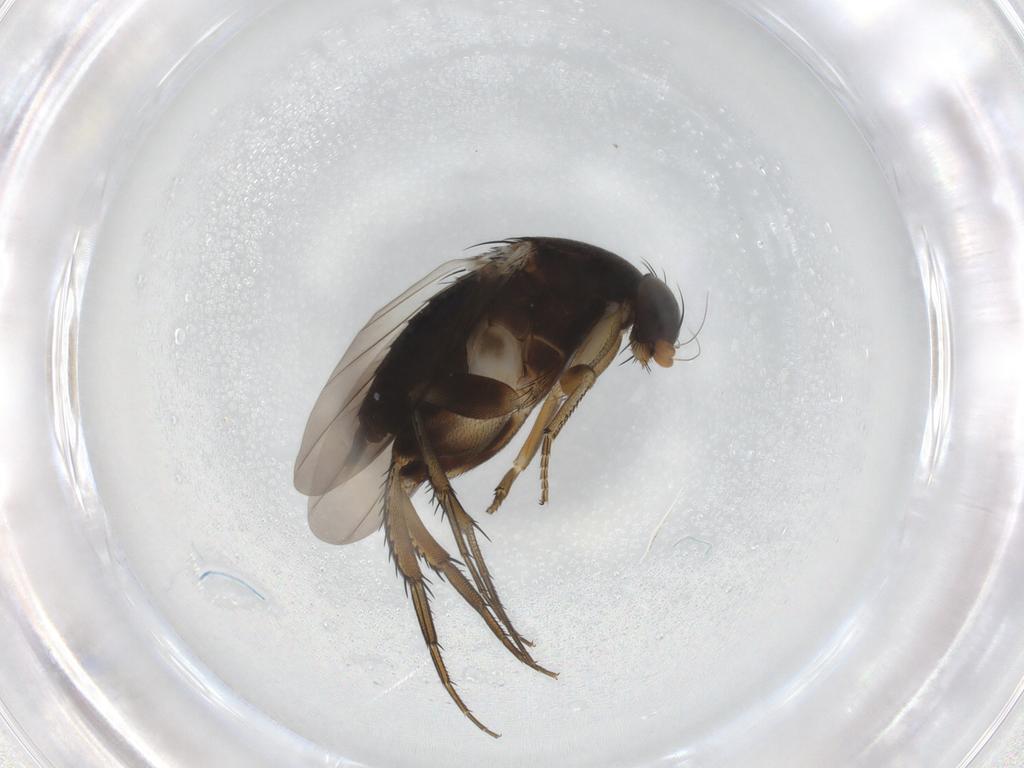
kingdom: Animalia
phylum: Arthropoda
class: Insecta
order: Diptera
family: Phoridae
